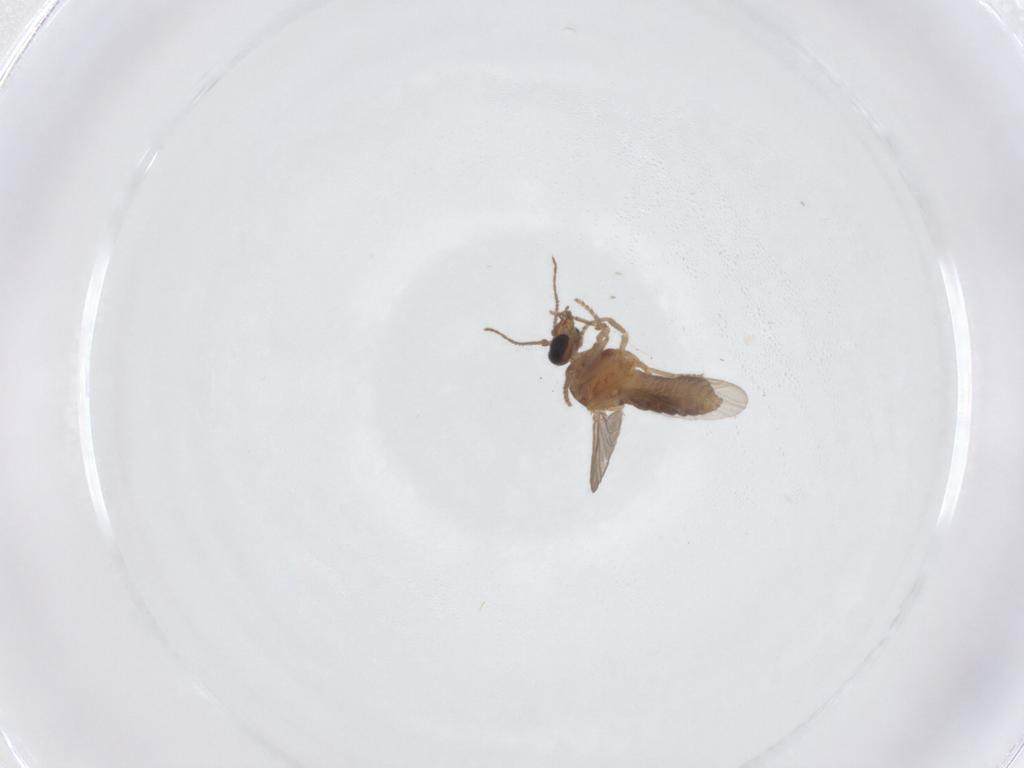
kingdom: Animalia
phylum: Arthropoda
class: Insecta
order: Diptera
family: Ceratopogonidae
